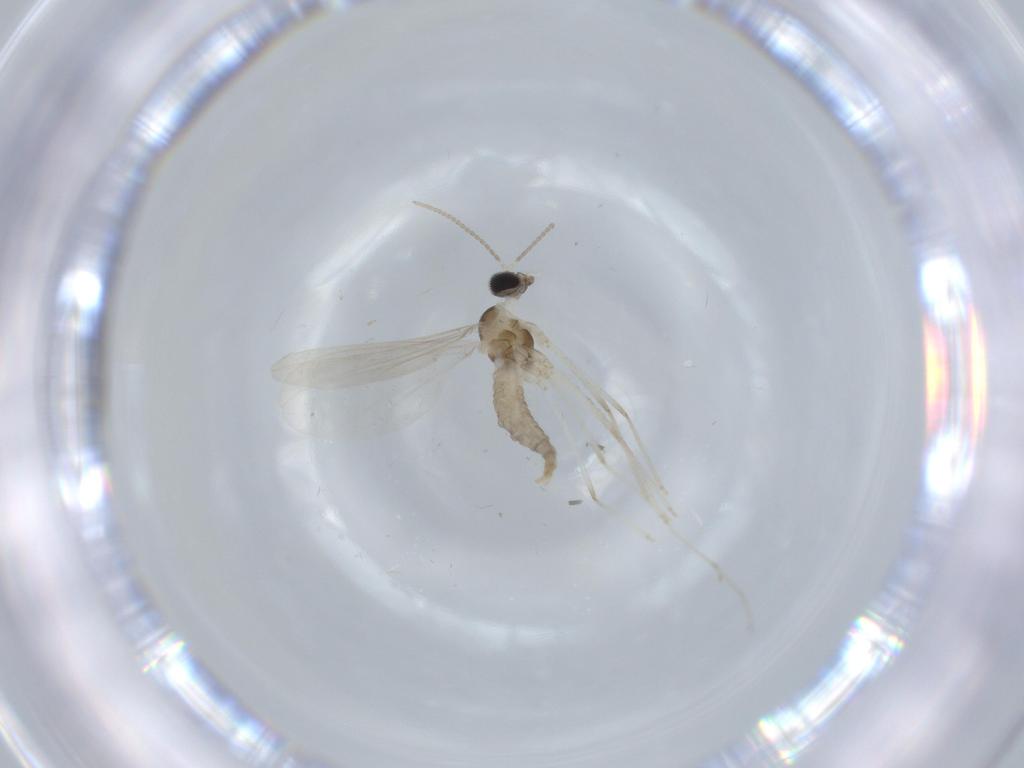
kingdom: Animalia
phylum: Arthropoda
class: Insecta
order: Diptera
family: Cecidomyiidae
